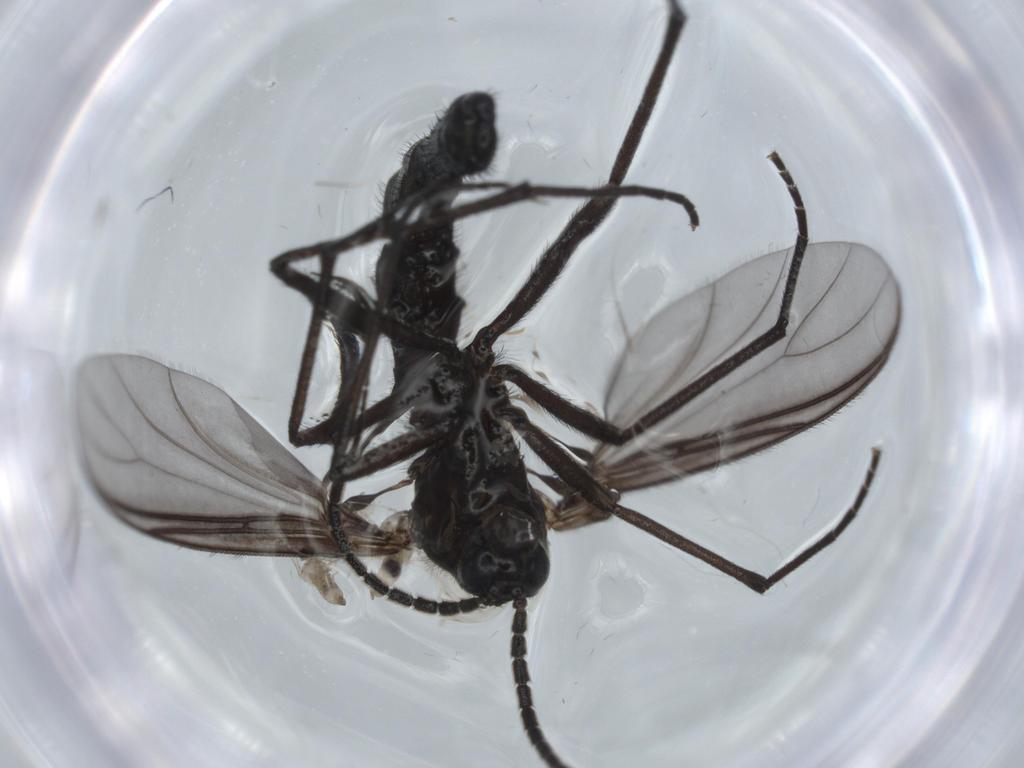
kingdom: Animalia
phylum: Arthropoda
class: Insecta
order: Diptera
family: Ceratopogonidae
